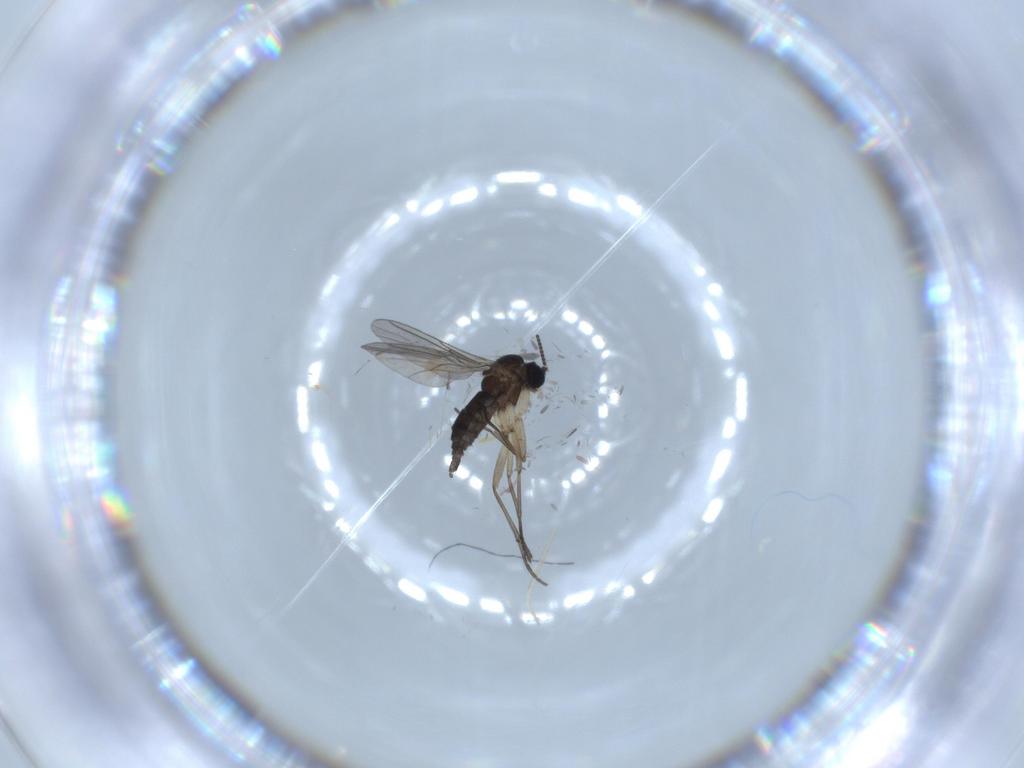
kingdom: Animalia
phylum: Arthropoda
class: Insecta
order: Diptera
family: Sciaridae
